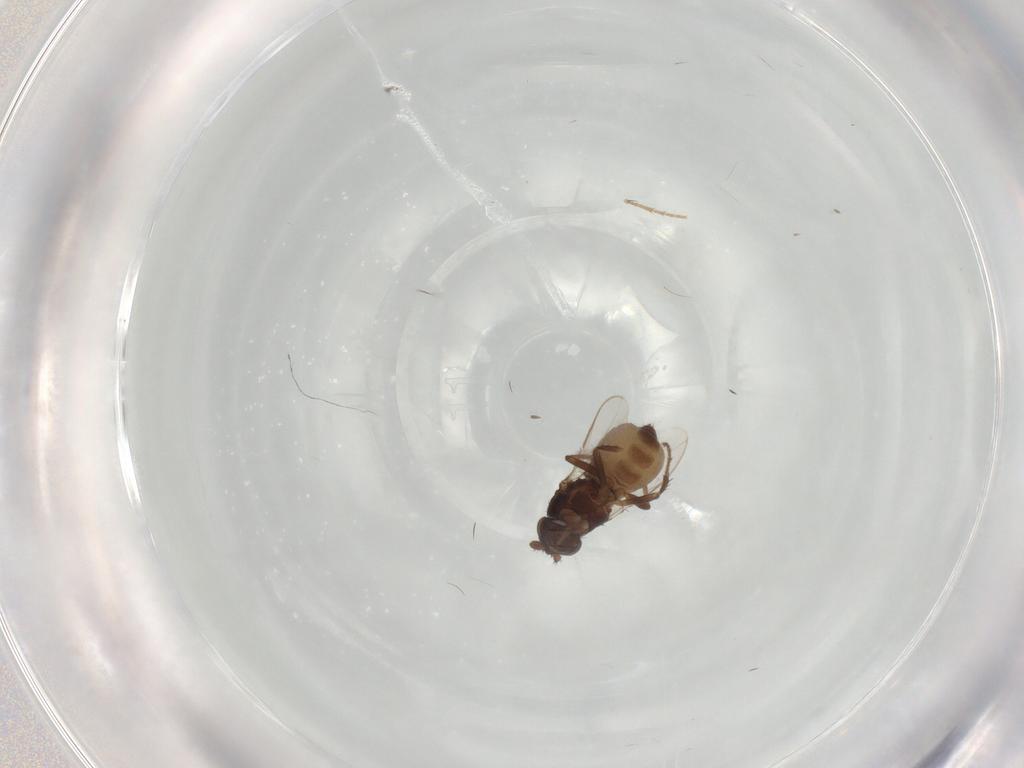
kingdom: Animalia
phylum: Arthropoda
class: Insecta
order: Diptera
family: Sphaeroceridae
